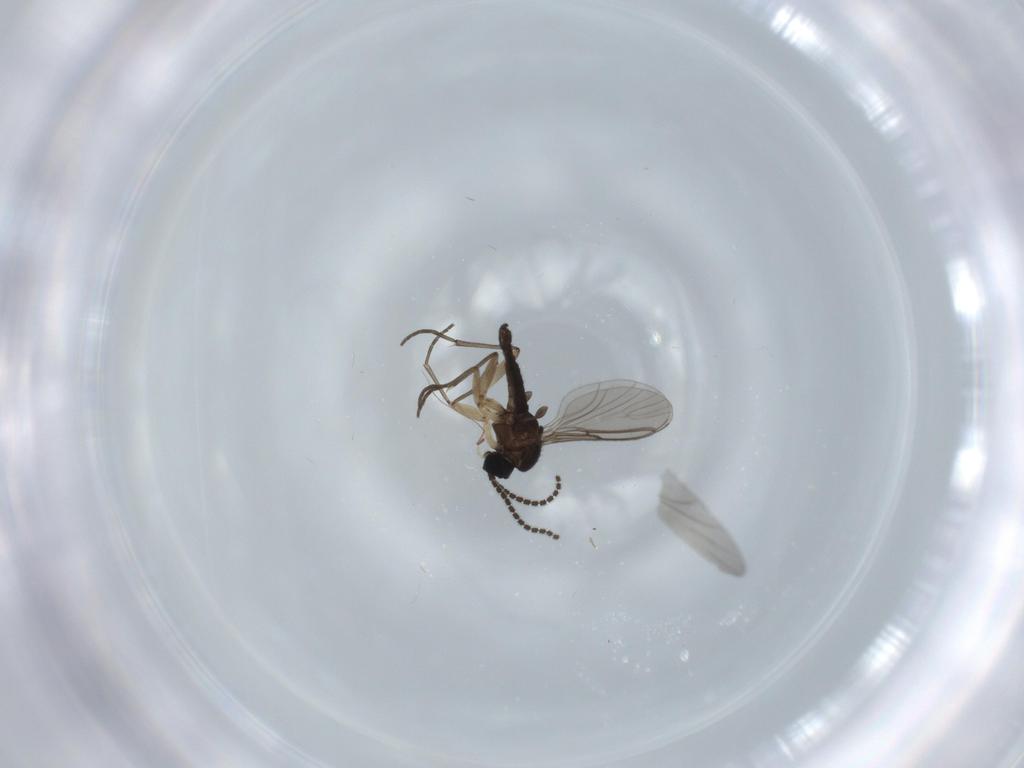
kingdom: Animalia
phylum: Arthropoda
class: Insecta
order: Diptera
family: Sciaridae
